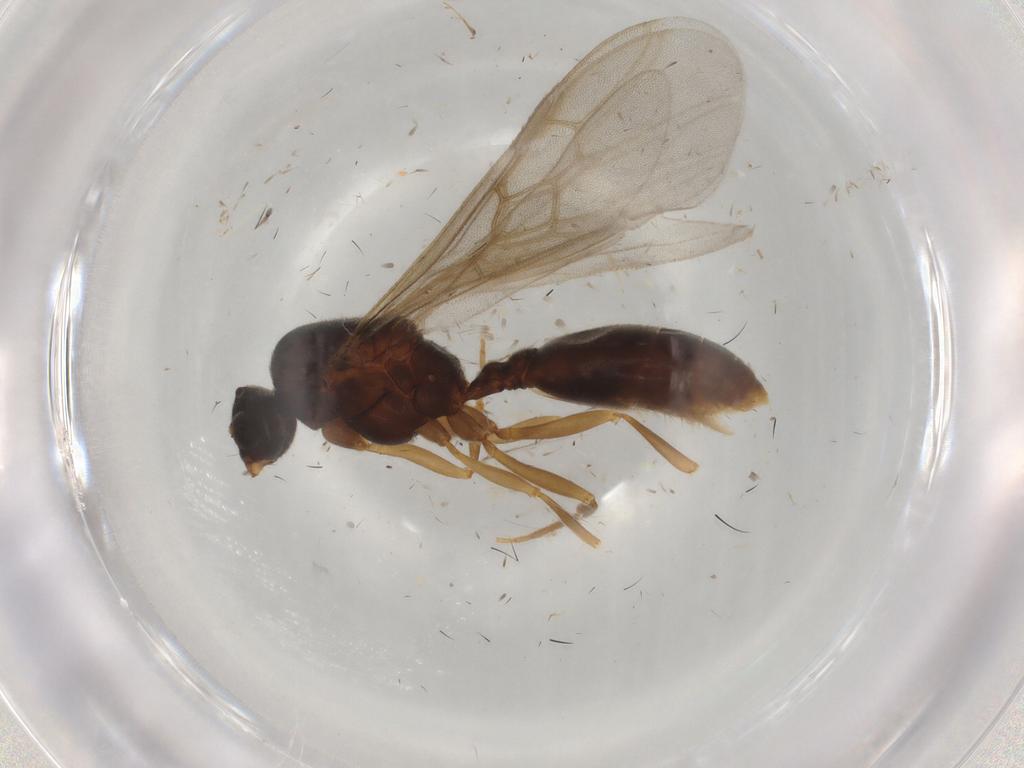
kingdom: Animalia
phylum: Arthropoda
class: Insecta
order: Hymenoptera
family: Formicidae
